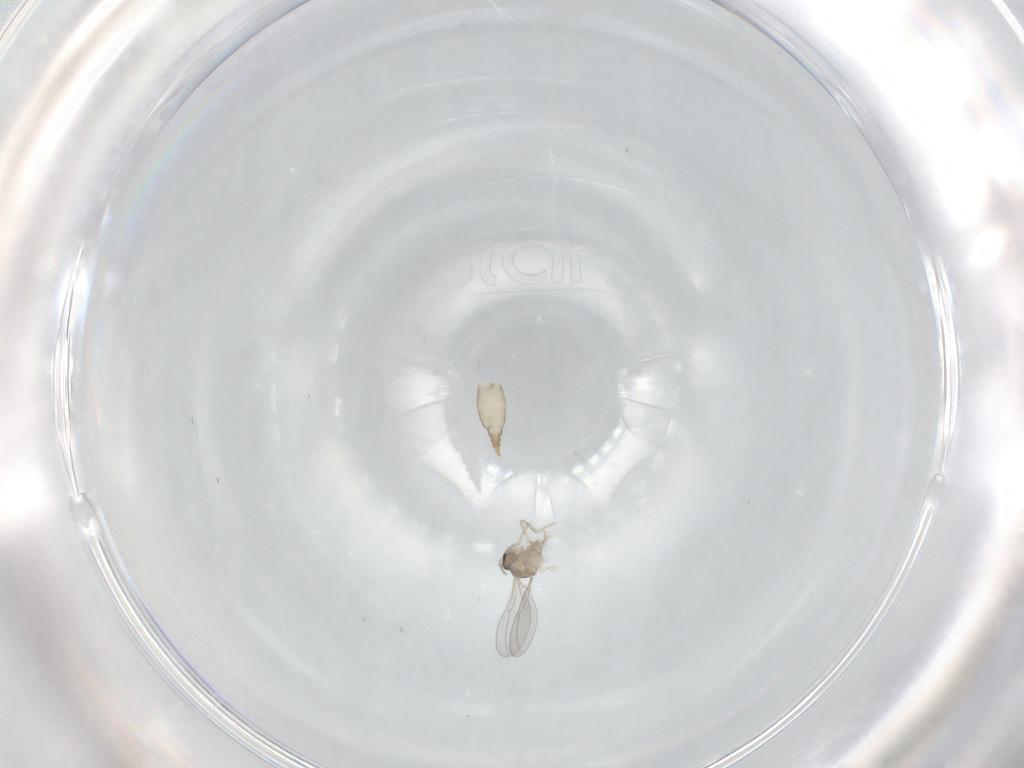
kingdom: Animalia
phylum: Arthropoda
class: Insecta
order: Diptera
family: Cecidomyiidae
